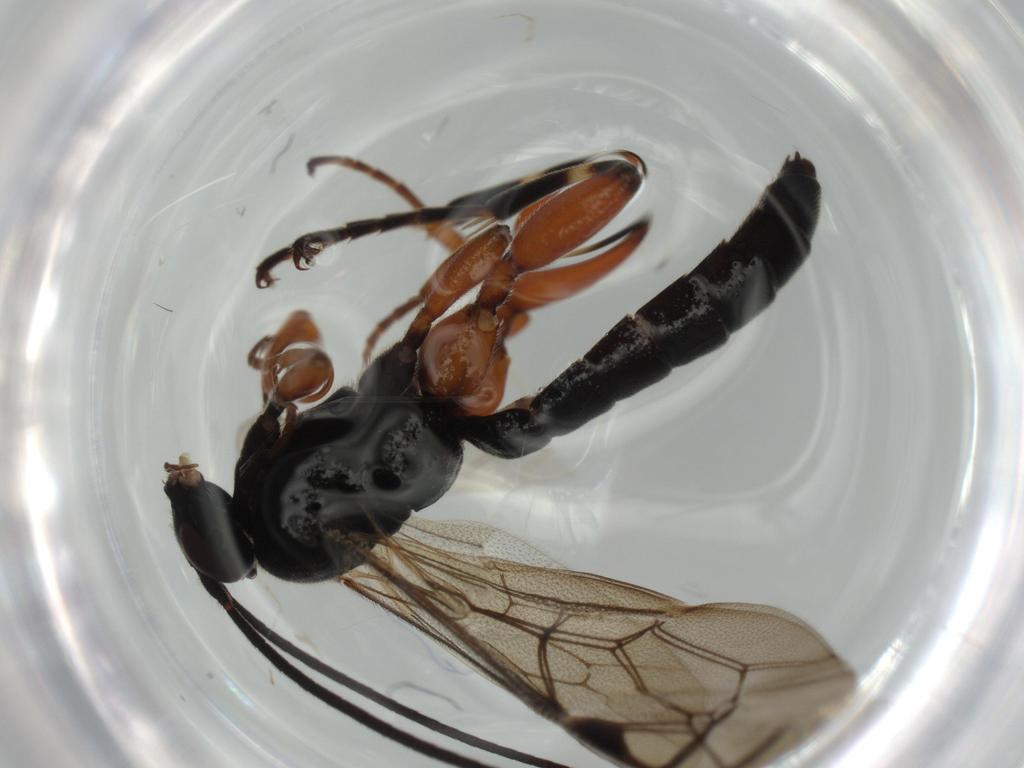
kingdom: Animalia
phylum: Arthropoda
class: Insecta
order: Hymenoptera
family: Ichneumonidae
